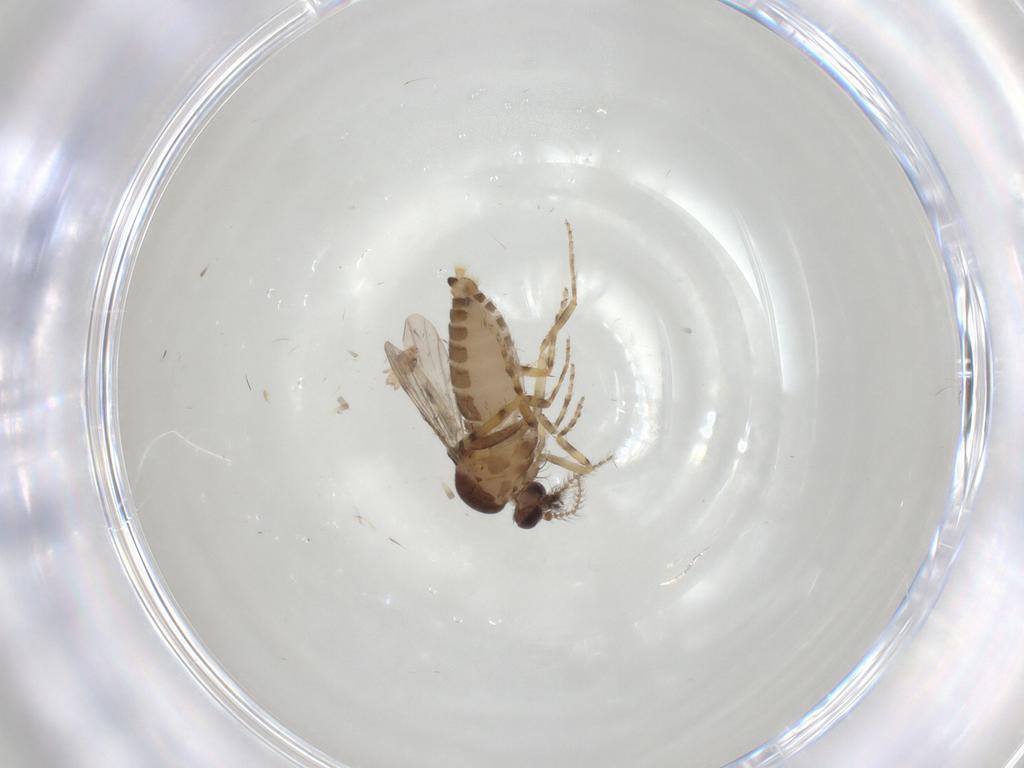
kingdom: Animalia
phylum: Arthropoda
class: Insecta
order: Diptera
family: Ceratopogonidae
